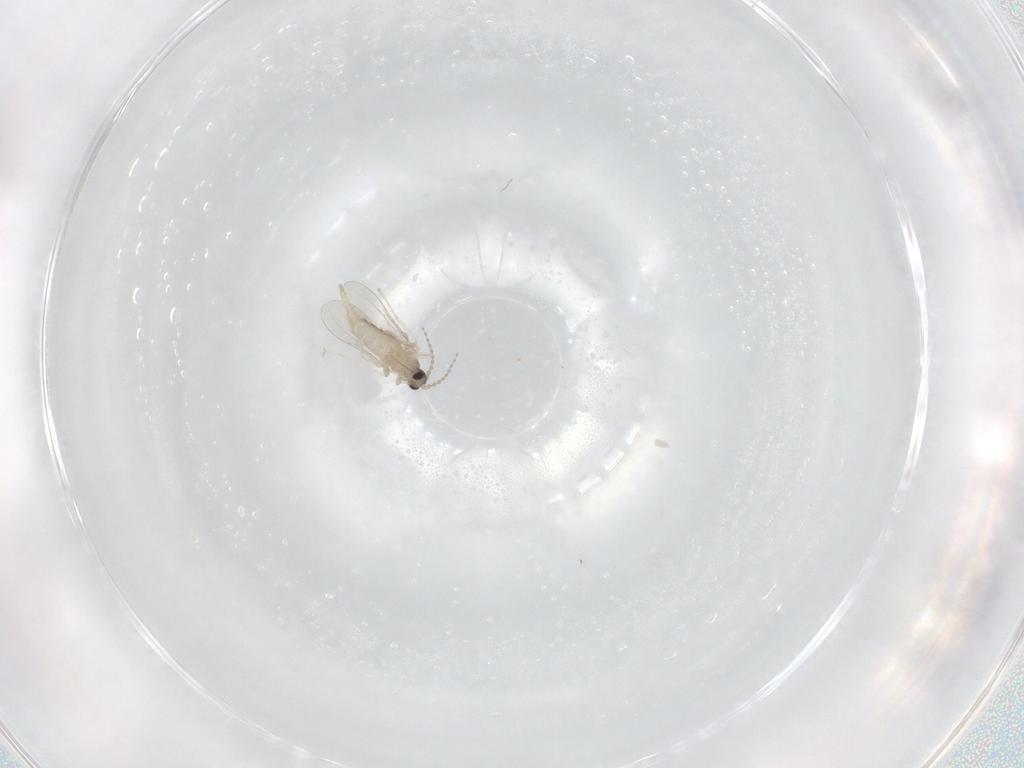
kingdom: Animalia
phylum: Arthropoda
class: Insecta
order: Diptera
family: Cecidomyiidae
